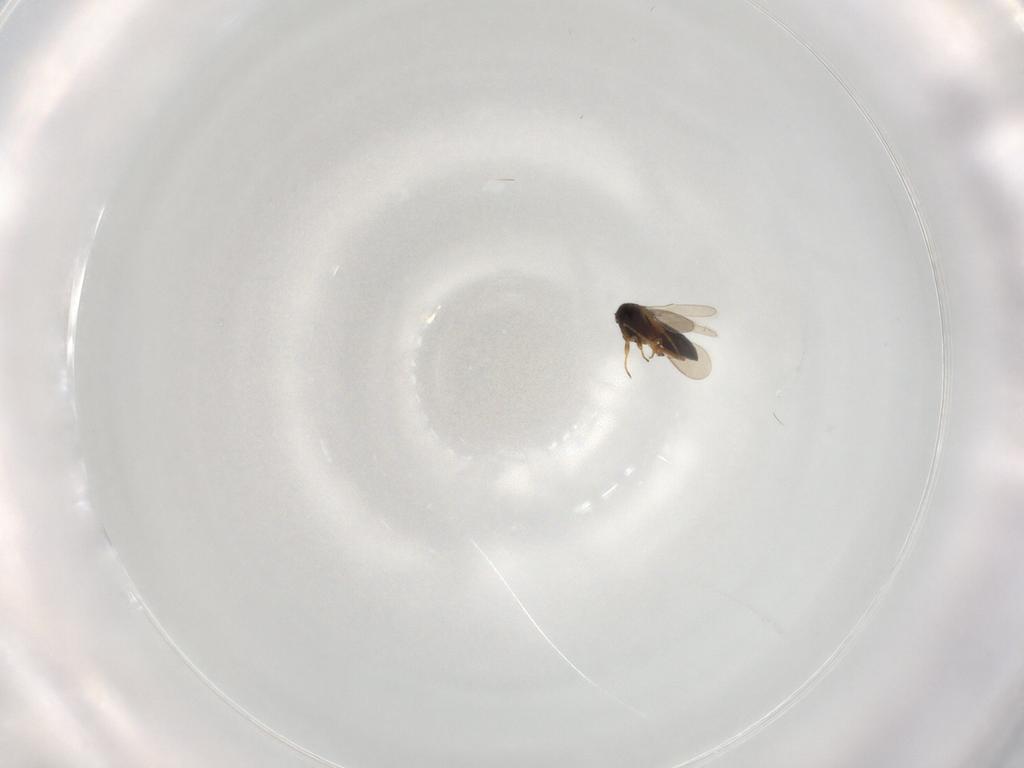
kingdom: Animalia
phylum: Arthropoda
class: Insecta
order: Hymenoptera
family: Scelionidae
